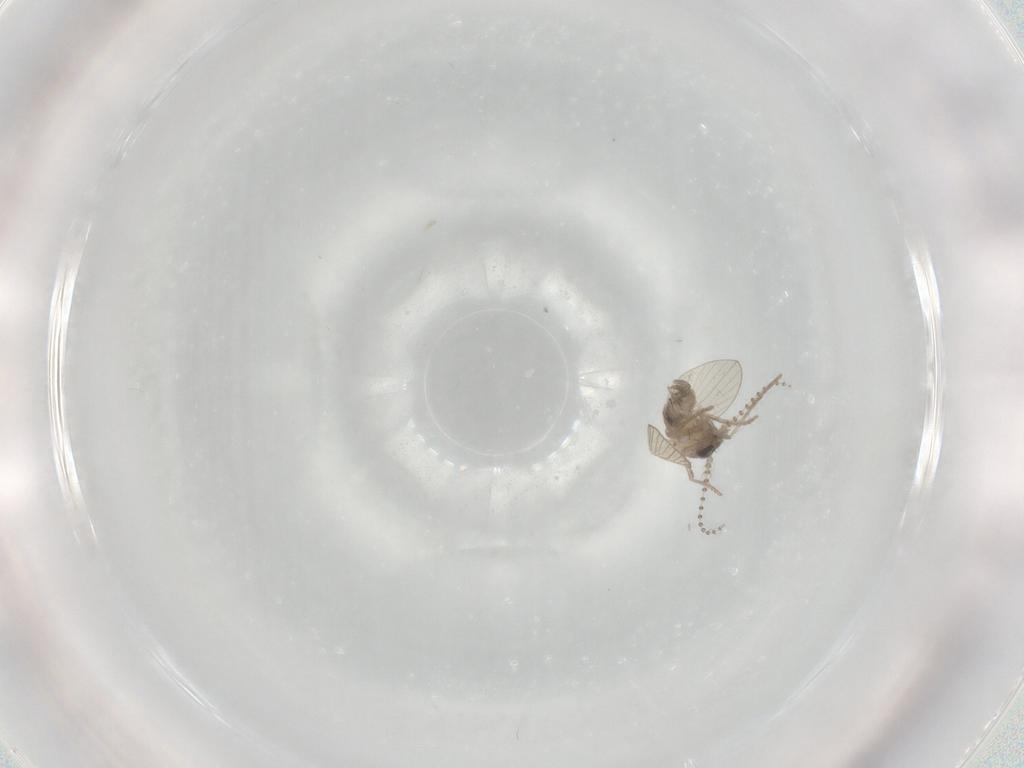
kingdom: Animalia
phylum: Arthropoda
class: Insecta
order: Diptera
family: Psychodidae
